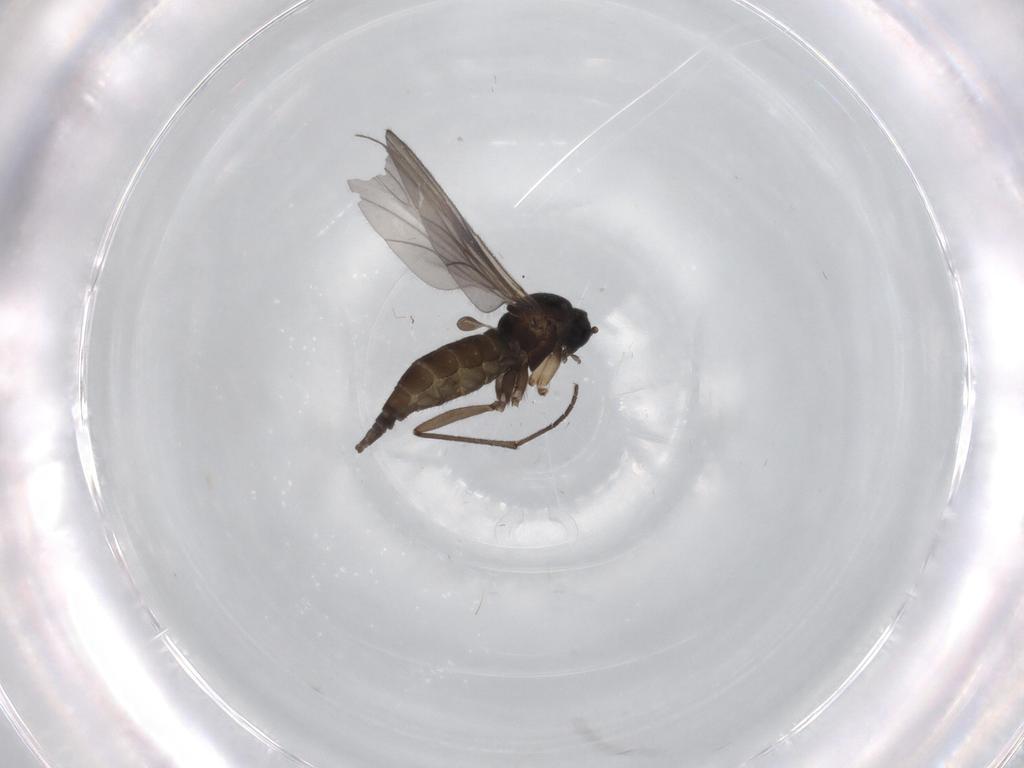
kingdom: Animalia
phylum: Arthropoda
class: Insecta
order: Diptera
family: Sciaridae
